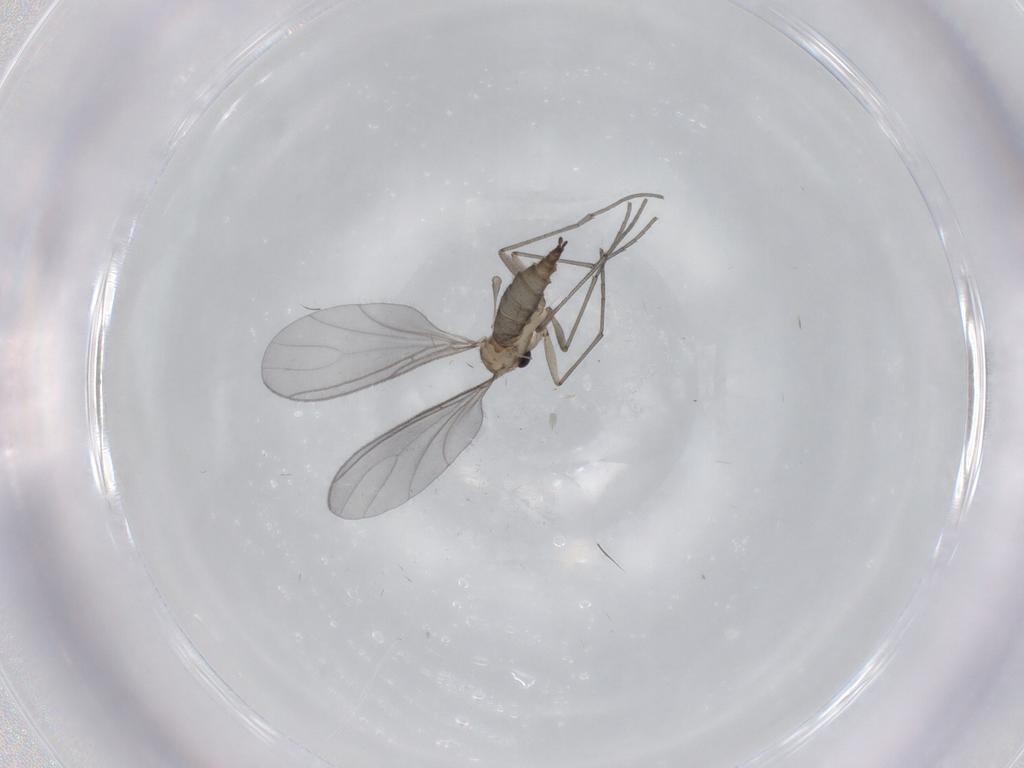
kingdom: Animalia
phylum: Arthropoda
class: Insecta
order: Diptera
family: Sciaridae
